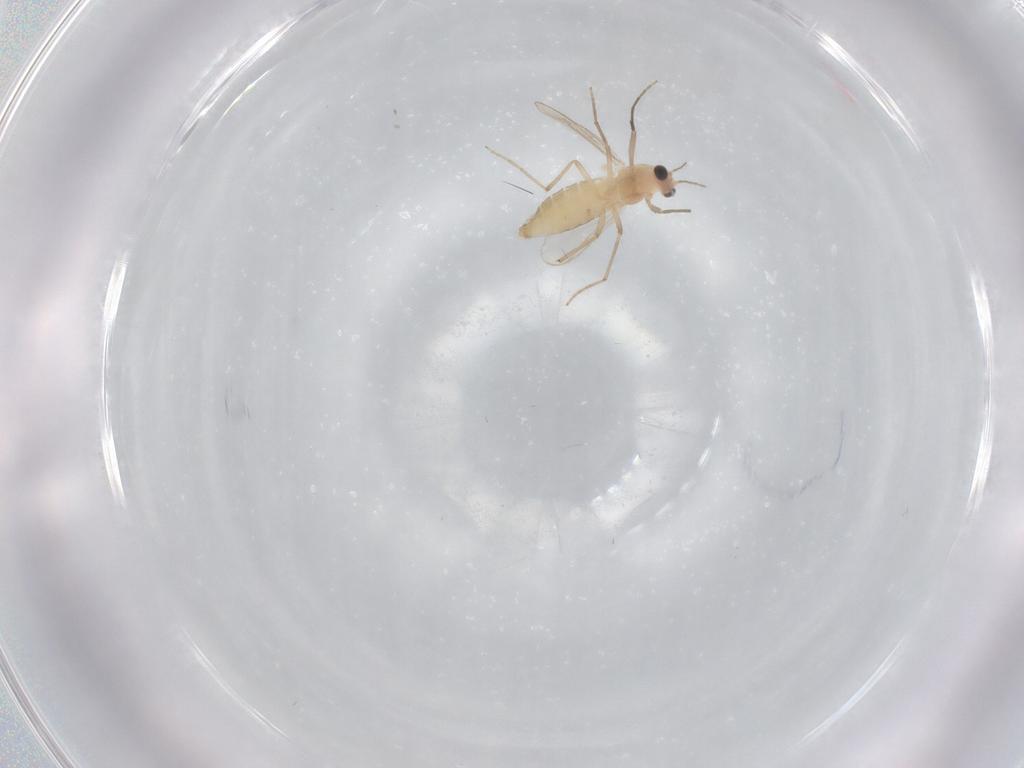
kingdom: Animalia
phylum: Arthropoda
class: Insecta
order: Diptera
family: Chironomidae
